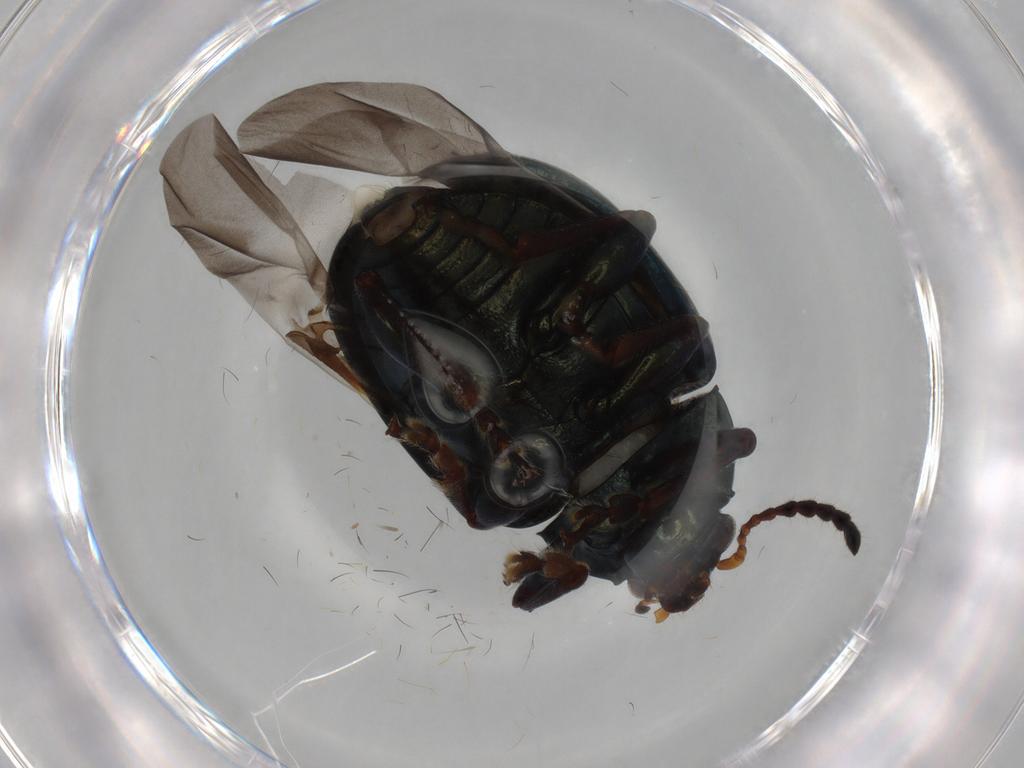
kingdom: Animalia
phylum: Arthropoda
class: Insecta
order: Coleoptera
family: Chrysomelidae
